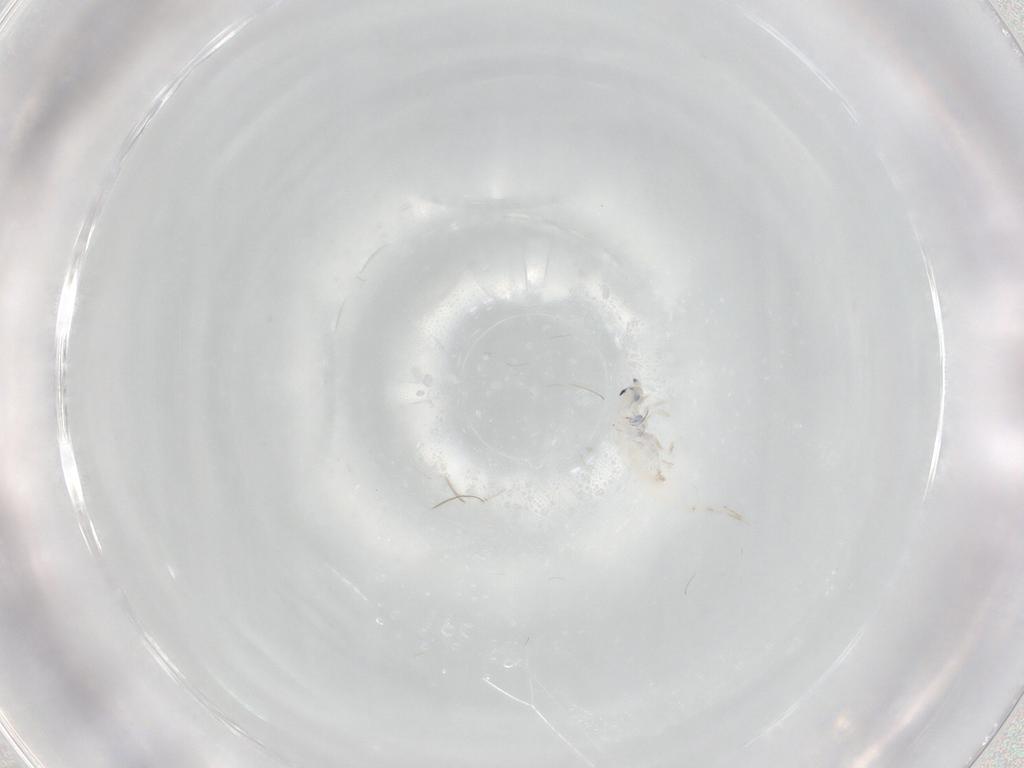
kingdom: Animalia
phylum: Arthropoda
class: Collembola
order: Entomobryomorpha
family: Entomobryidae
